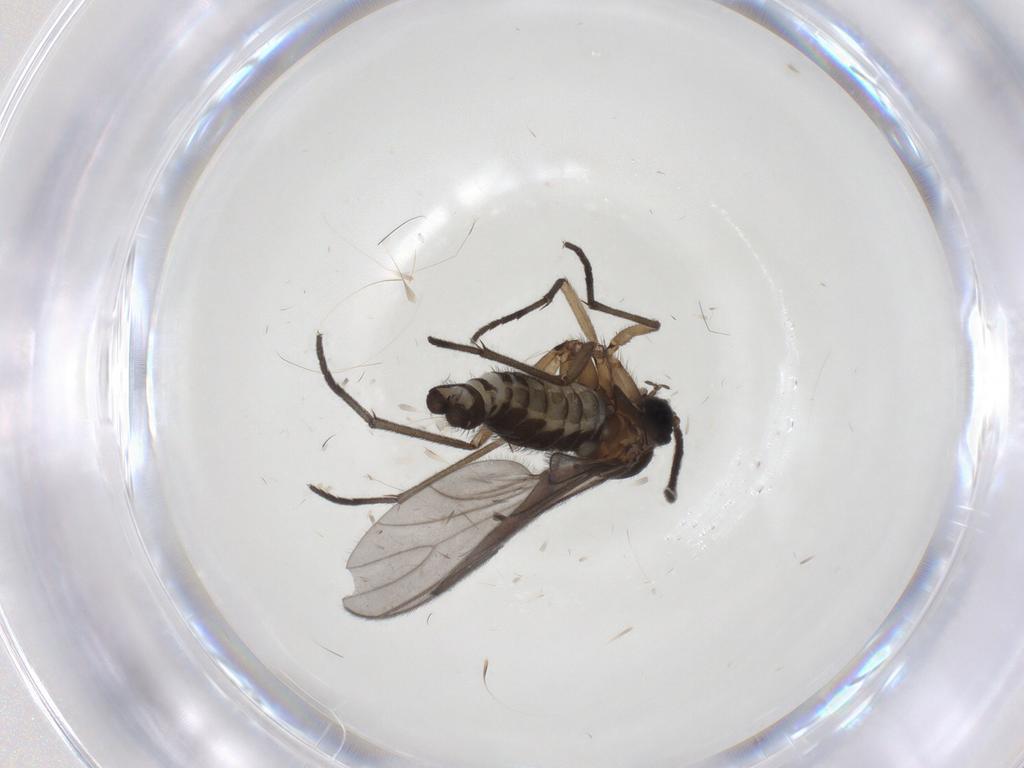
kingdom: Animalia
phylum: Arthropoda
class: Insecta
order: Diptera
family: Sciaridae
